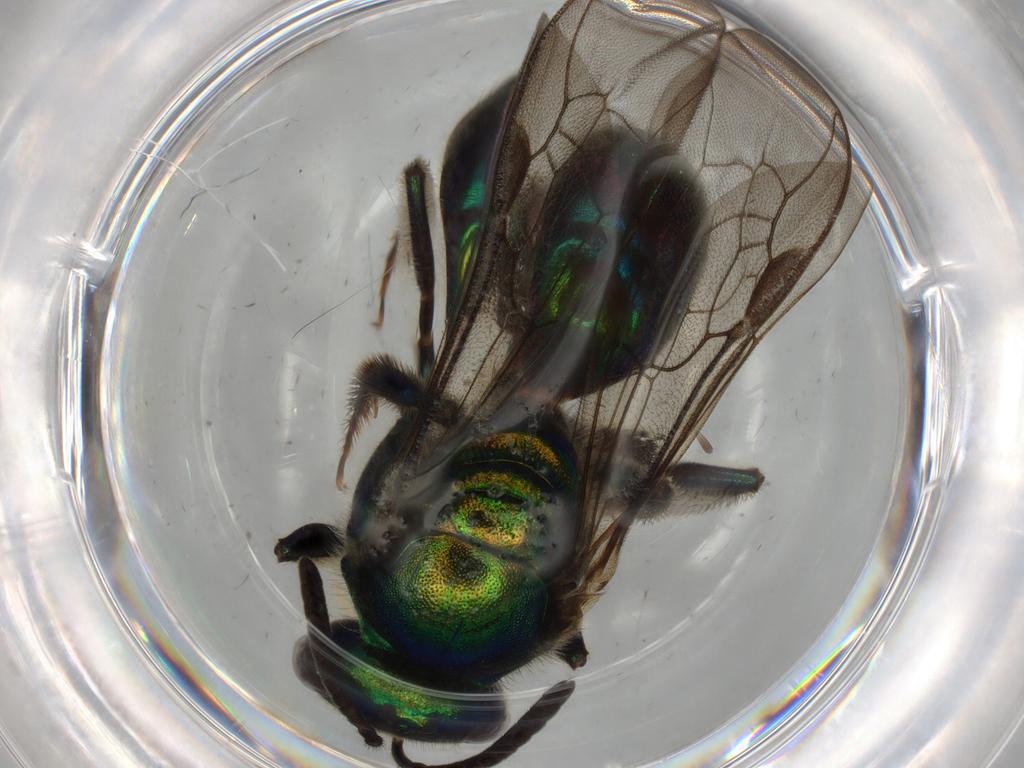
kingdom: Animalia
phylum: Arthropoda
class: Insecta
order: Hymenoptera
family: Halictidae
